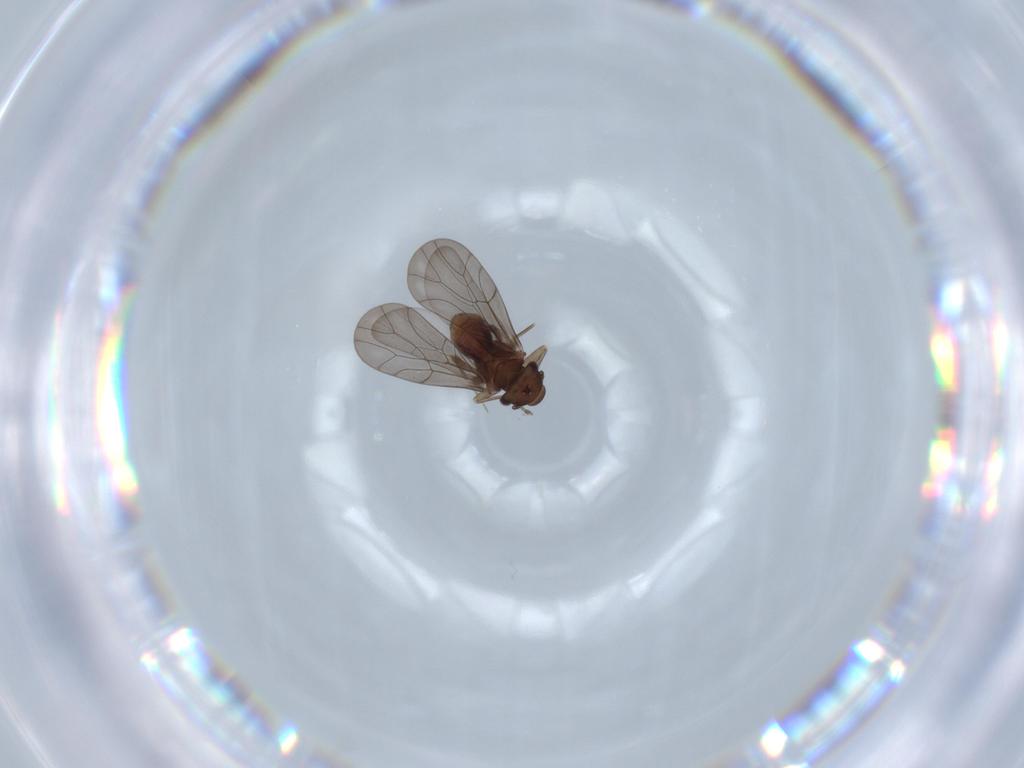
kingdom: Animalia
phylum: Arthropoda
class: Insecta
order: Psocodea
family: Lepidopsocidae
